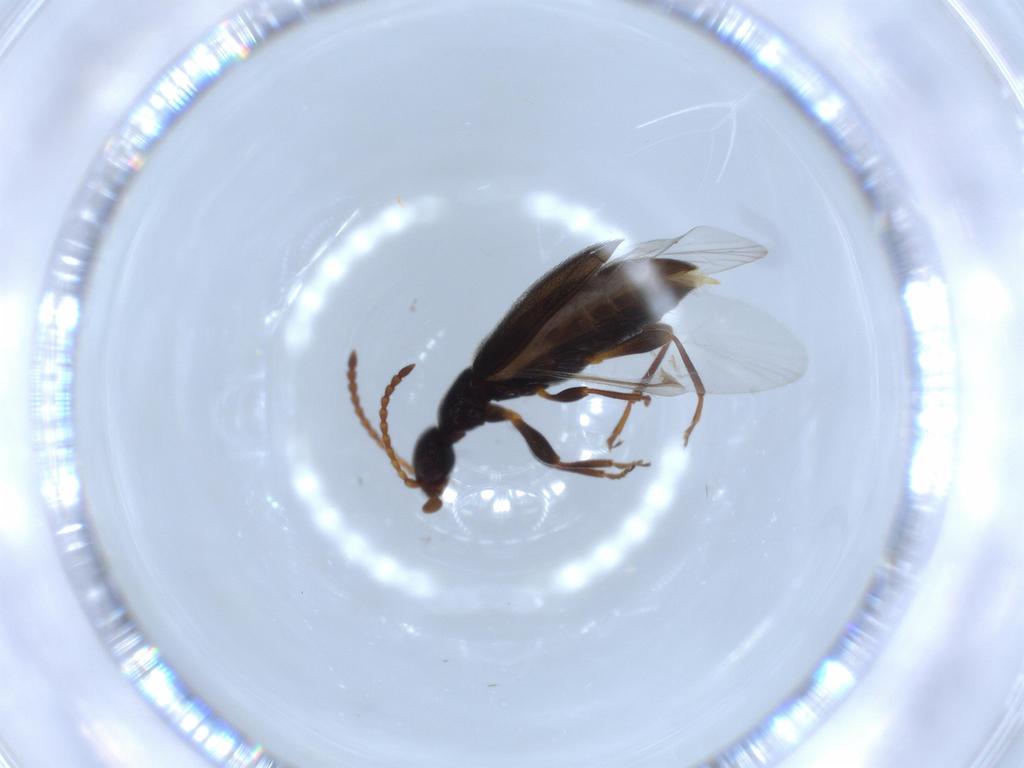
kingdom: Animalia
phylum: Arthropoda
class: Insecta
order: Coleoptera
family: Anthicidae
